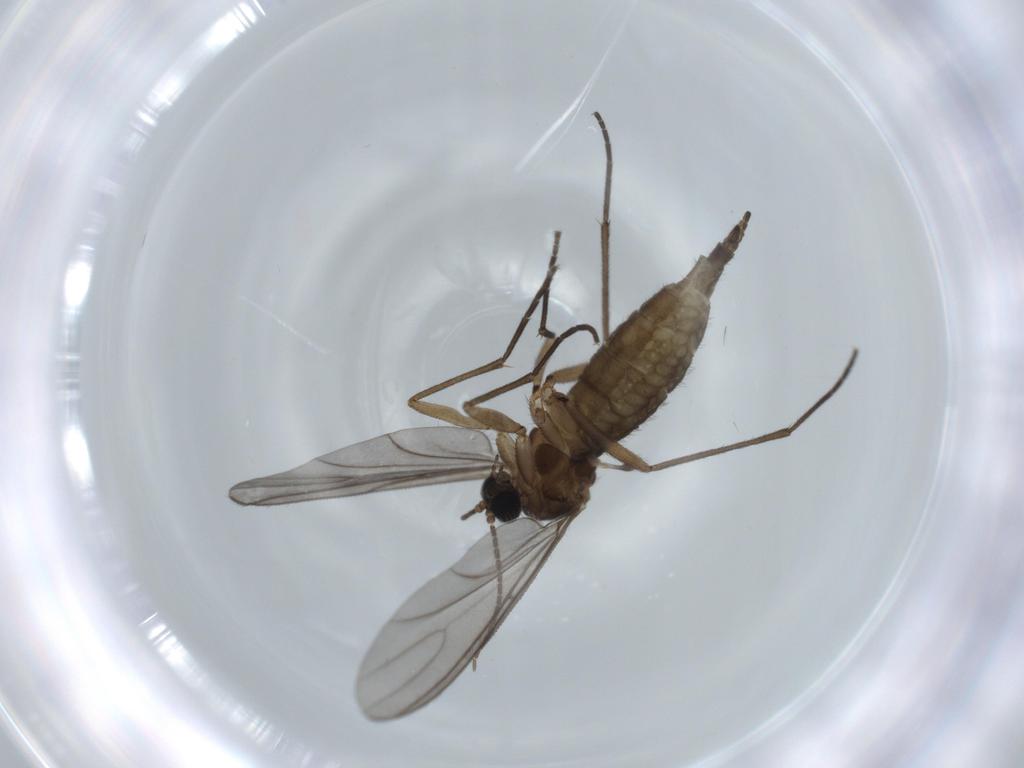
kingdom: Animalia
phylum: Arthropoda
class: Insecta
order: Diptera
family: Sciaridae
